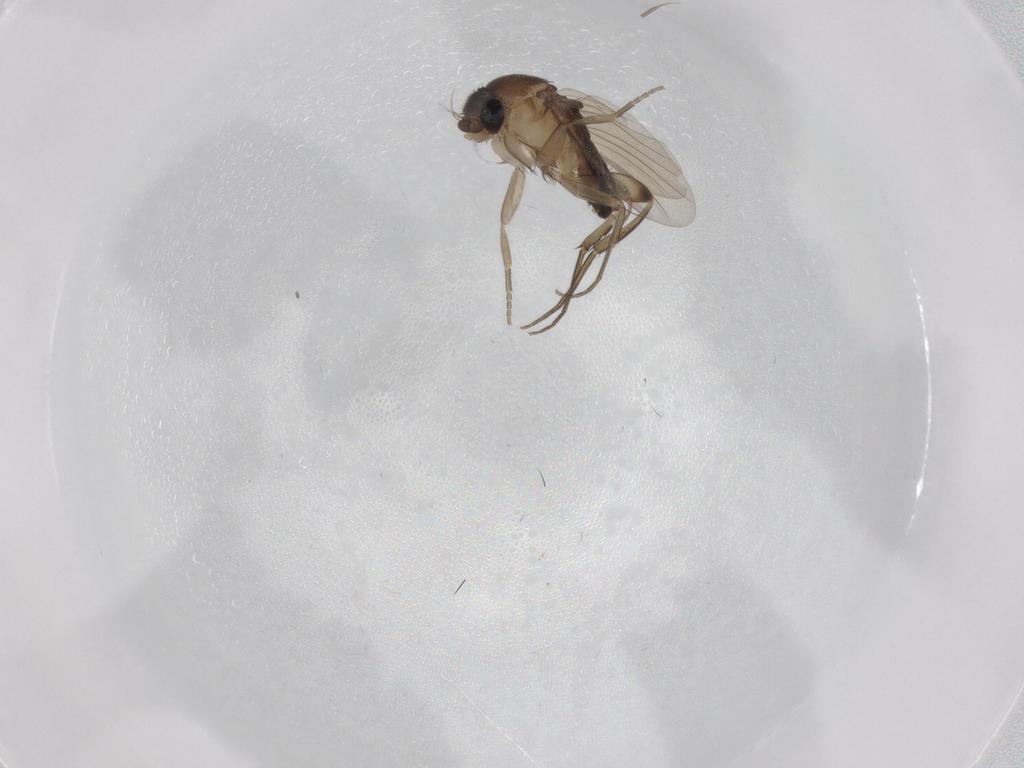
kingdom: Animalia
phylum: Arthropoda
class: Insecta
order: Diptera
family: Phoridae
